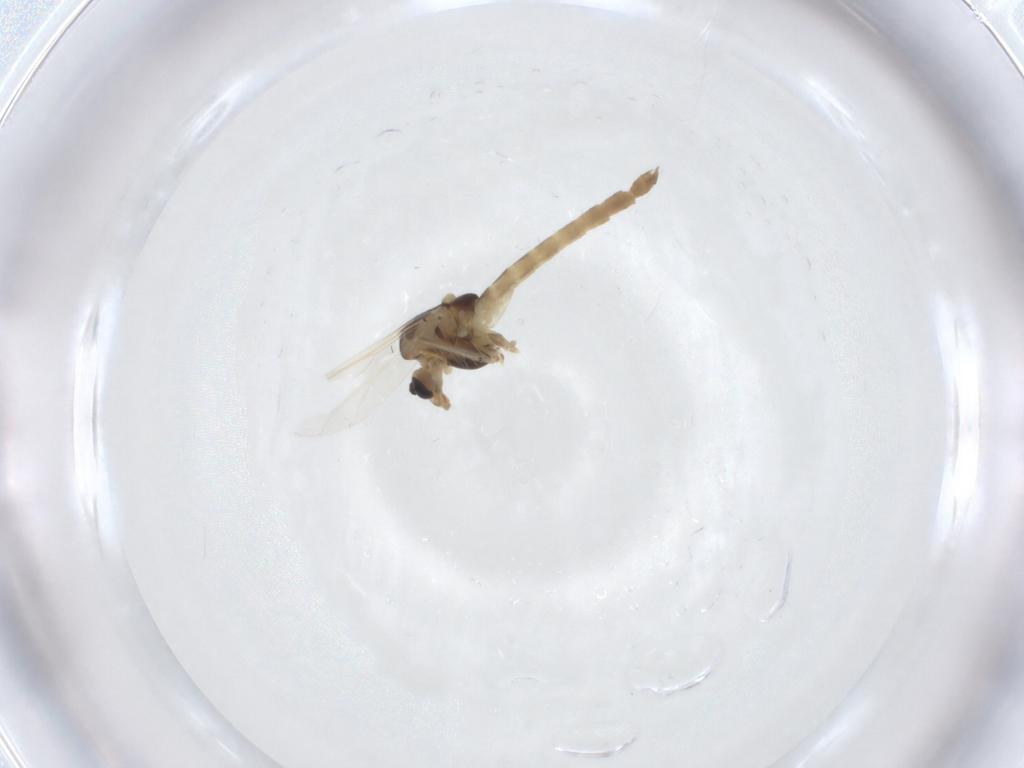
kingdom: Animalia
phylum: Arthropoda
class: Insecta
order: Diptera
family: Chironomidae
